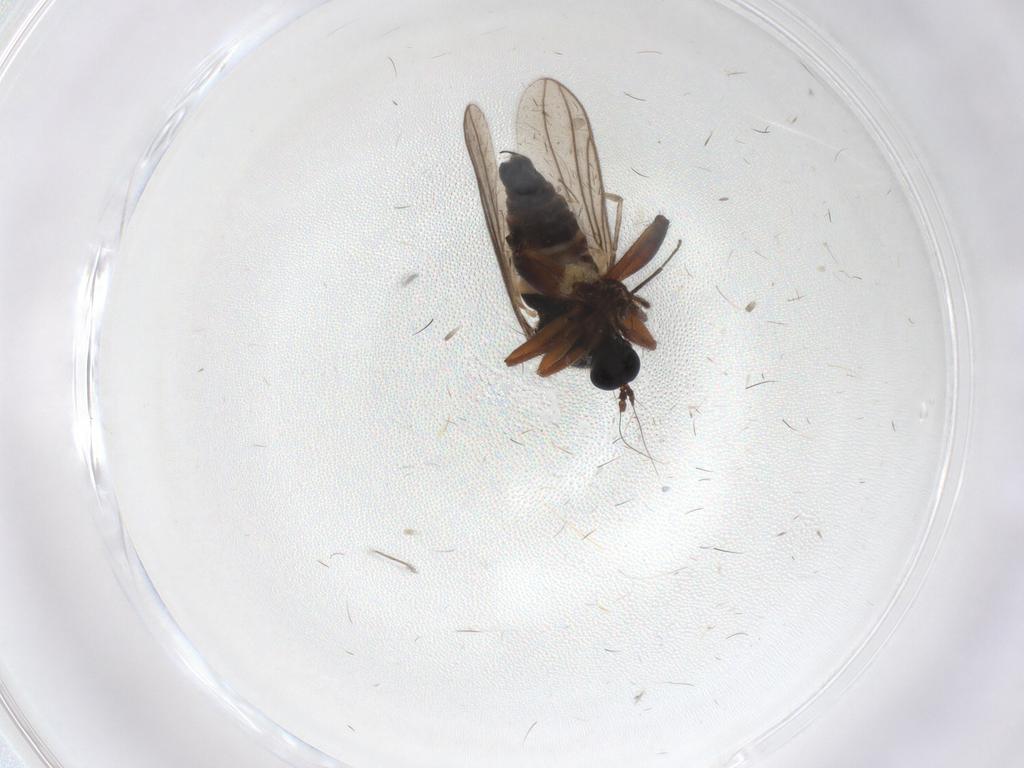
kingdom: Animalia
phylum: Arthropoda
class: Insecta
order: Diptera
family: Hybotidae
